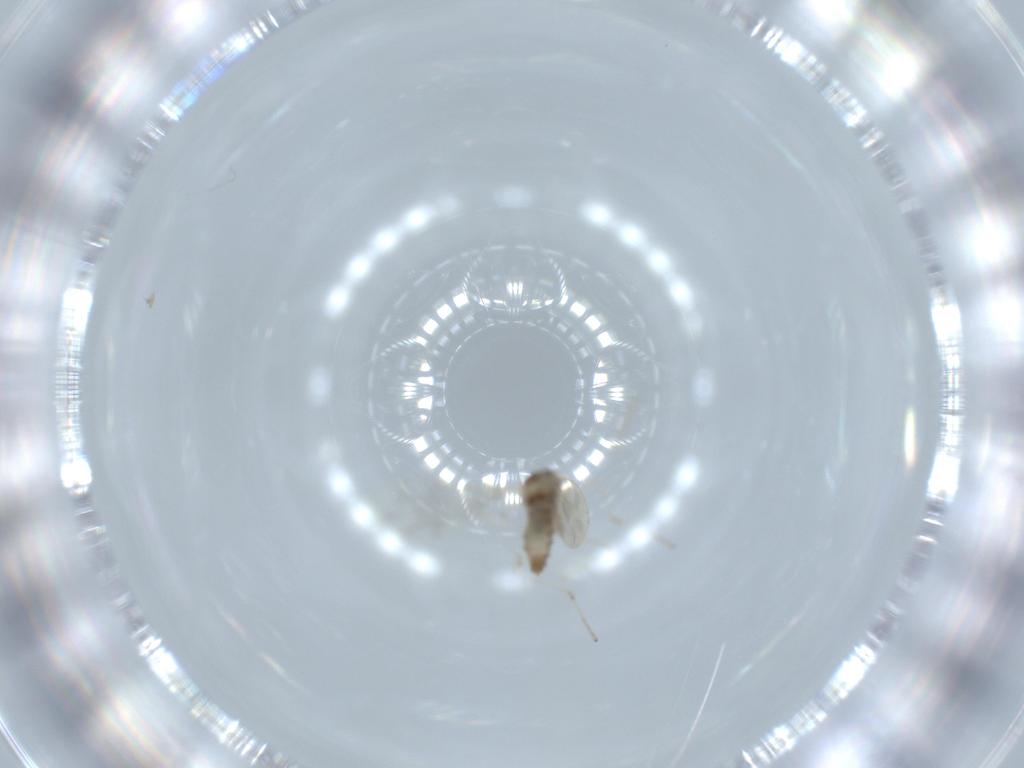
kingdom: Animalia
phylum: Arthropoda
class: Insecta
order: Diptera
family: Cecidomyiidae
